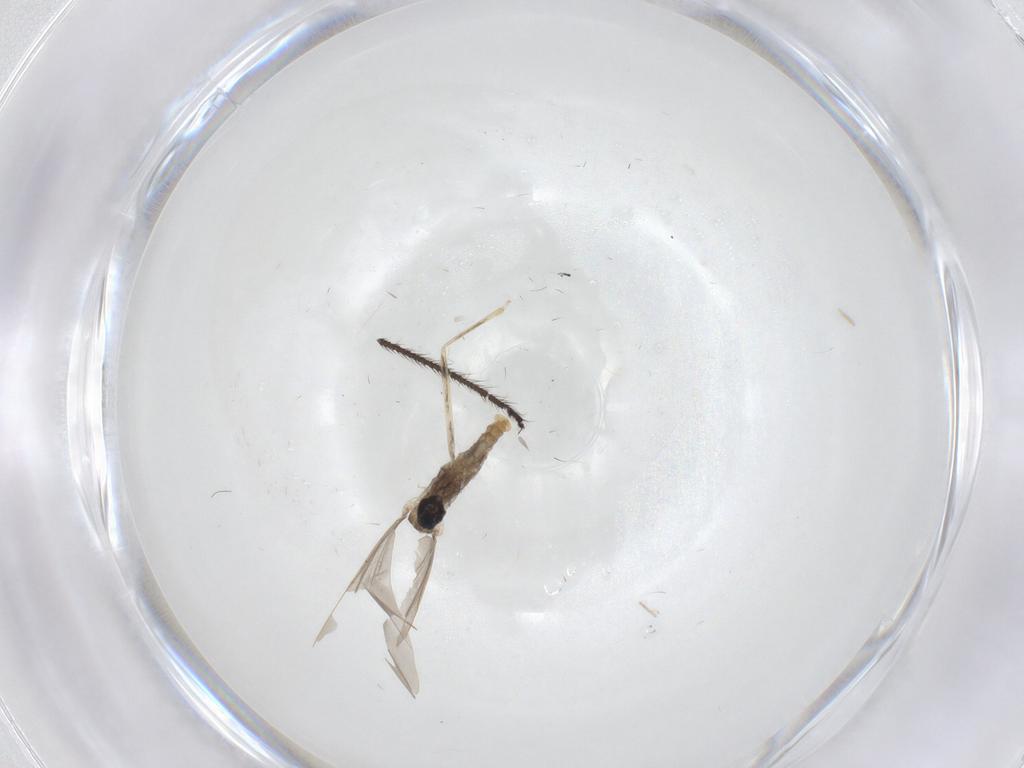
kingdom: Animalia
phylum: Arthropoda
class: Insecta
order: Diptera
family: Cecidomyiidae
